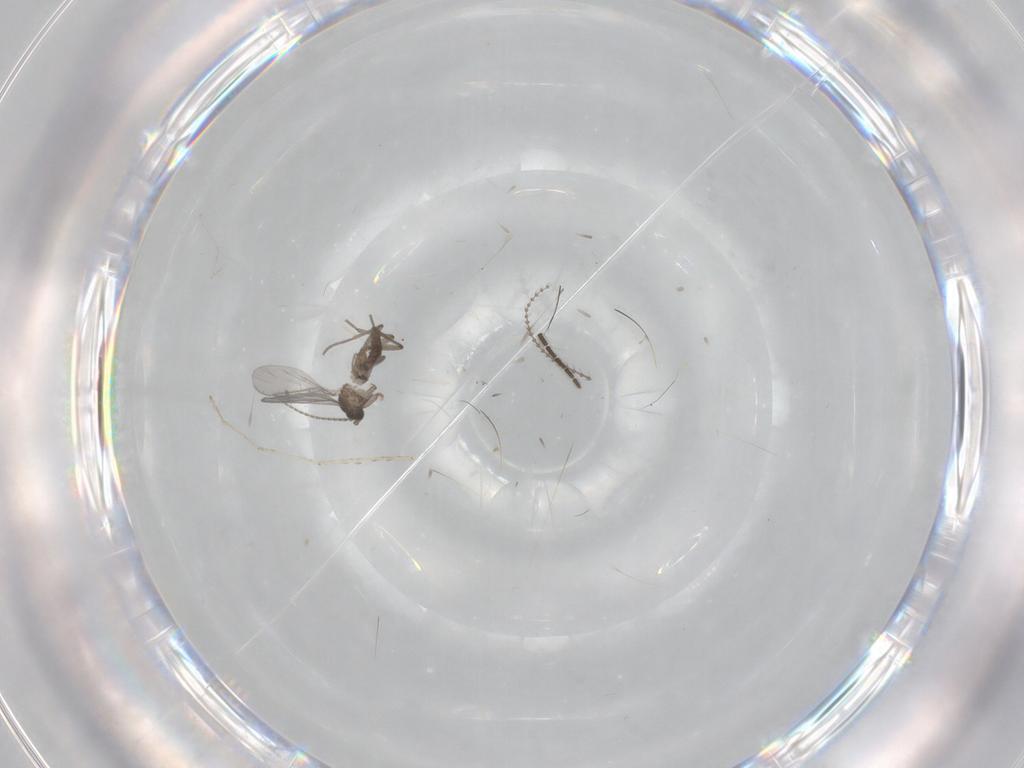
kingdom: Animalia
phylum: Arthropoda
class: Insecta
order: Diptera
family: Sciaridae
